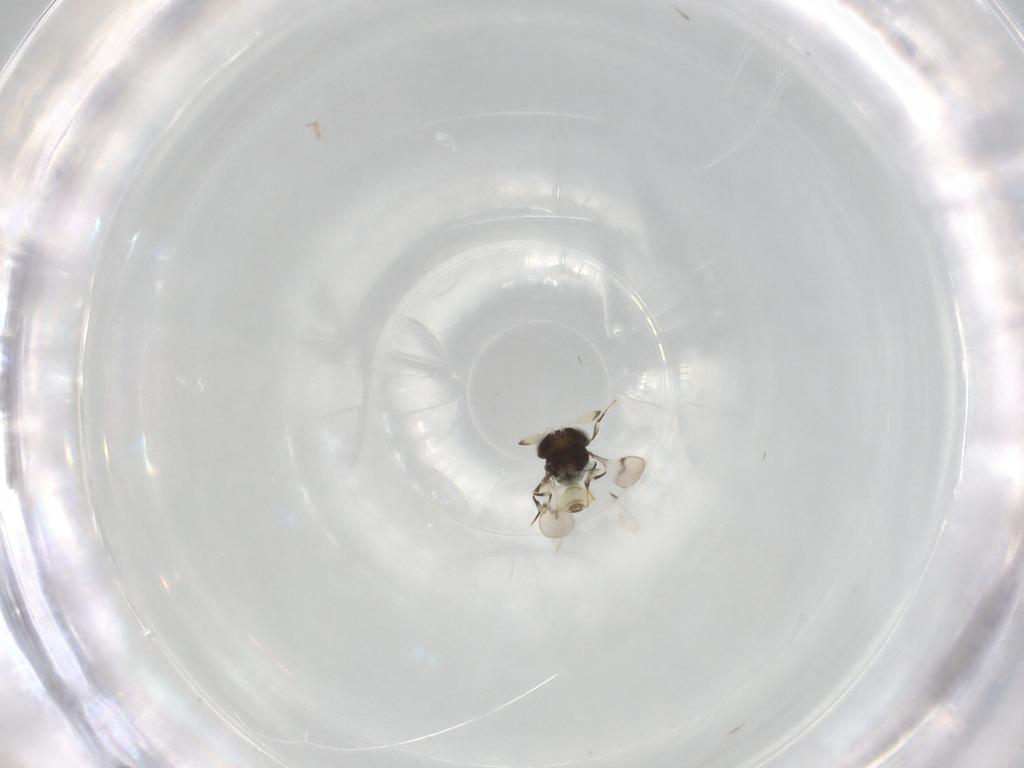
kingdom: Animalia
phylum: Arthropoda
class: Insecta
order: Hymenoptera
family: Scelionidae
